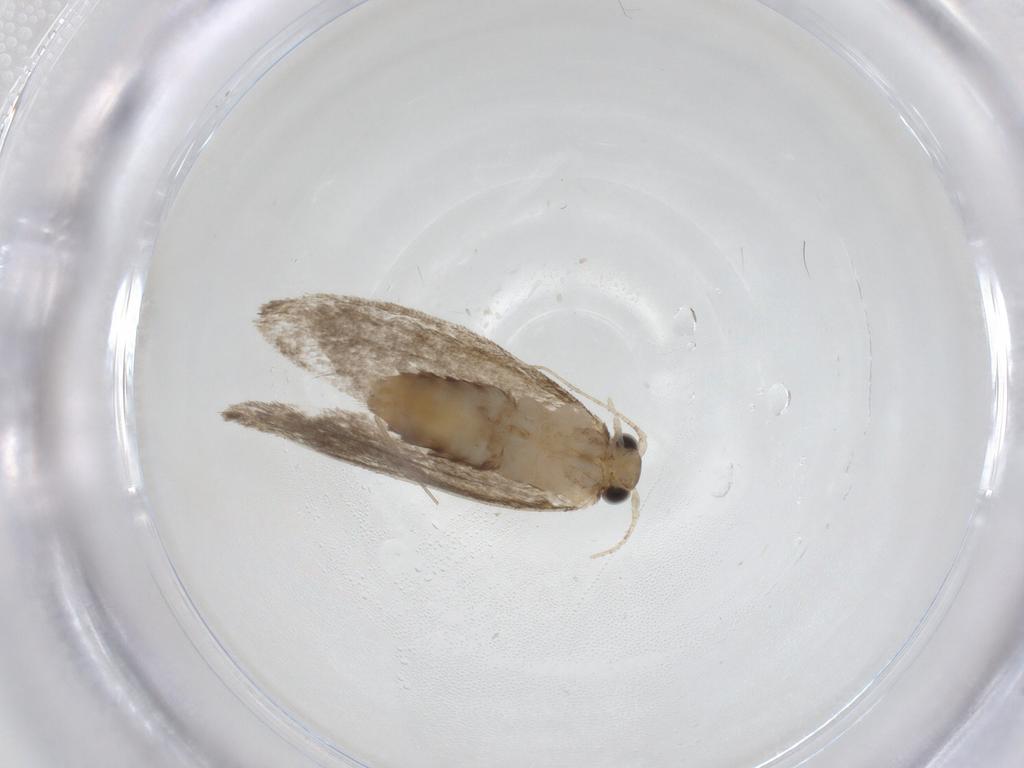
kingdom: Animalia
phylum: Arthropoda
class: Insecta
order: Lepidoptera
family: Tineidae
